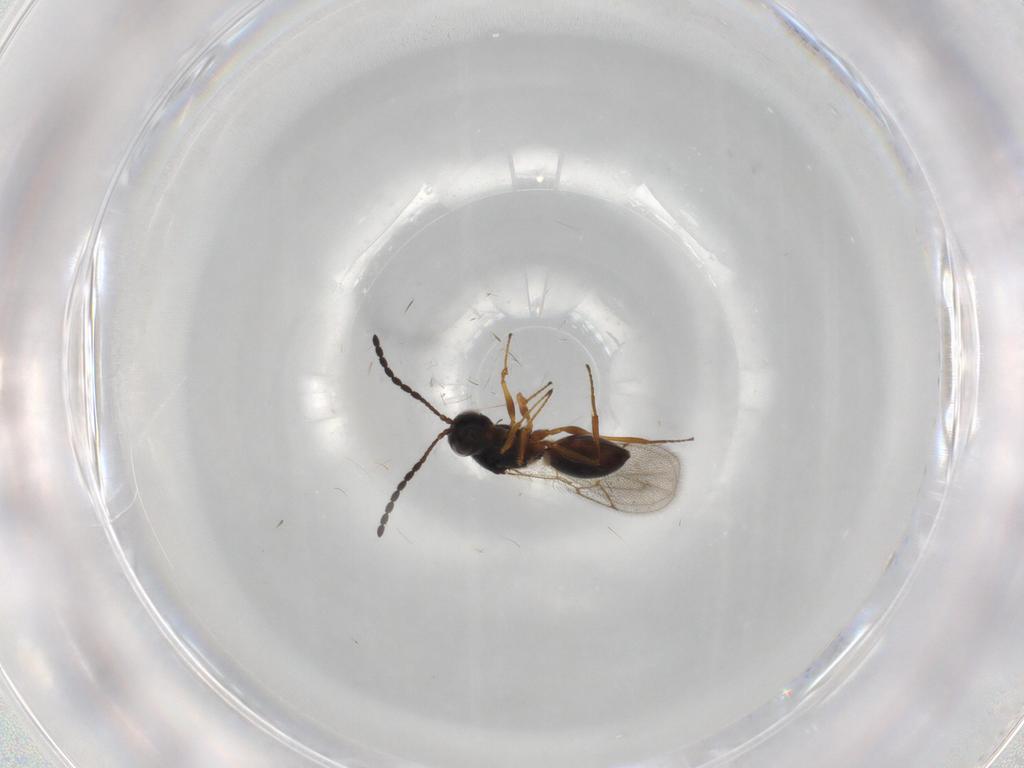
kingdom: Animalia
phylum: Arthropoda
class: Insecta
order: Hymenoptera
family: Figitidae
